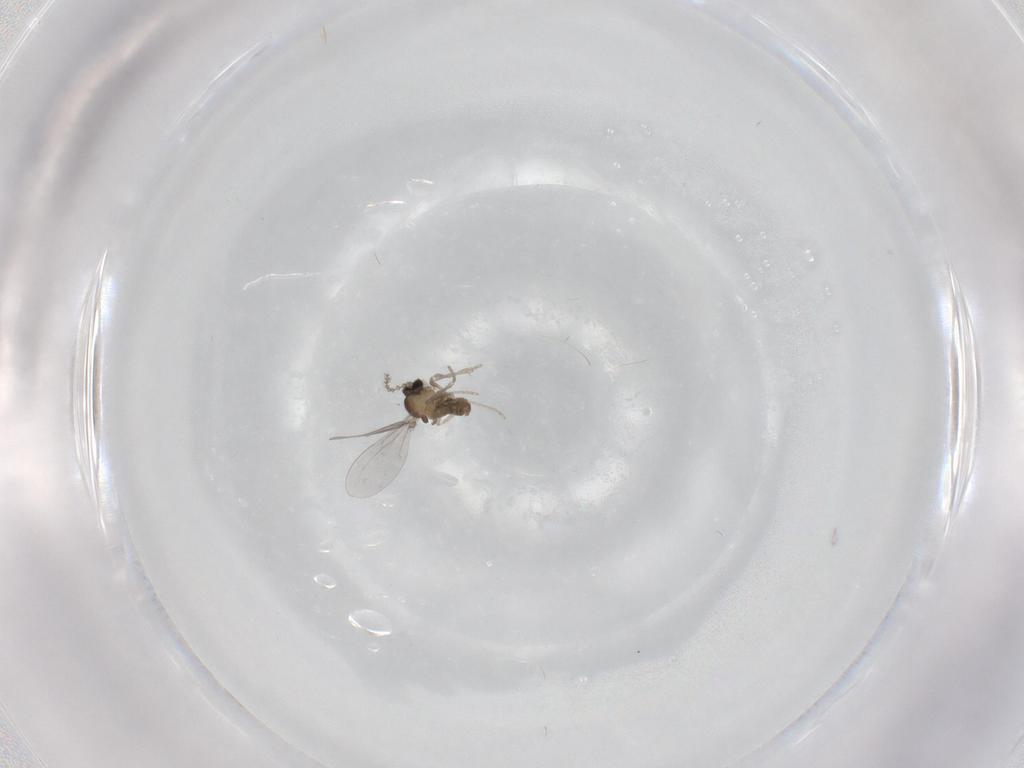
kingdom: Animalia
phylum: Arthropoda
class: Insecta
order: Diptera
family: Cecidomyiidae
